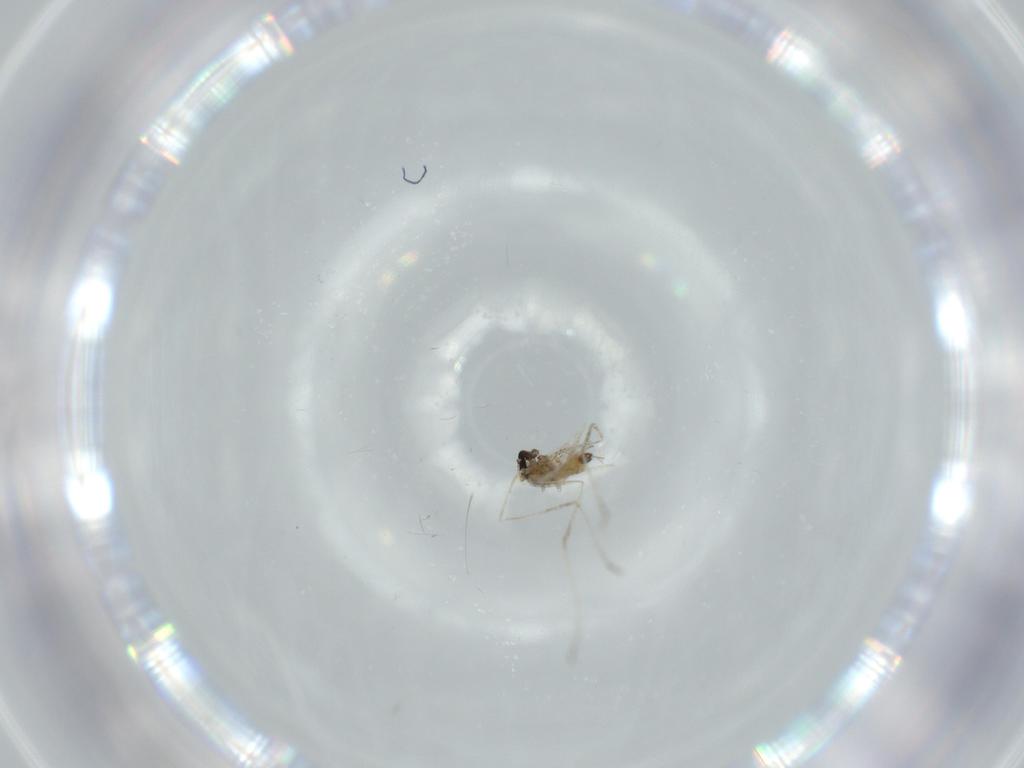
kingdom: Animalia
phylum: Arthropoda
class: Insecta
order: Diptera
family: Cecidomyiidae
